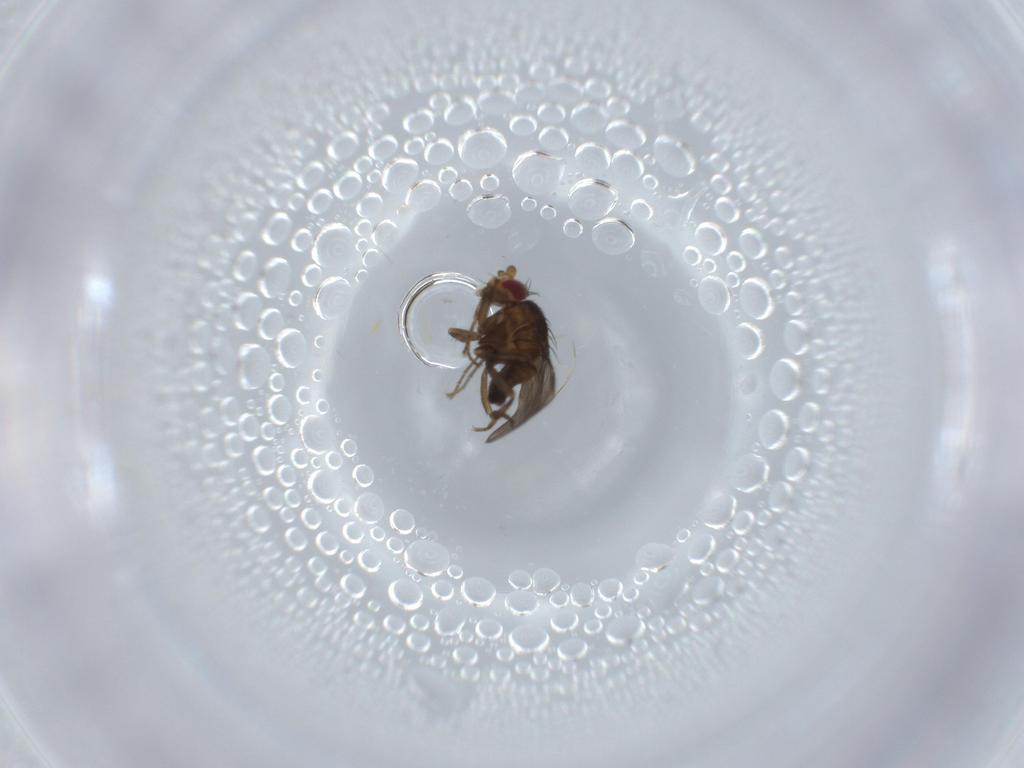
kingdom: Animalia
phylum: Arthropoda
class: Insecta
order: Diptera
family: Sphaeroceridae
